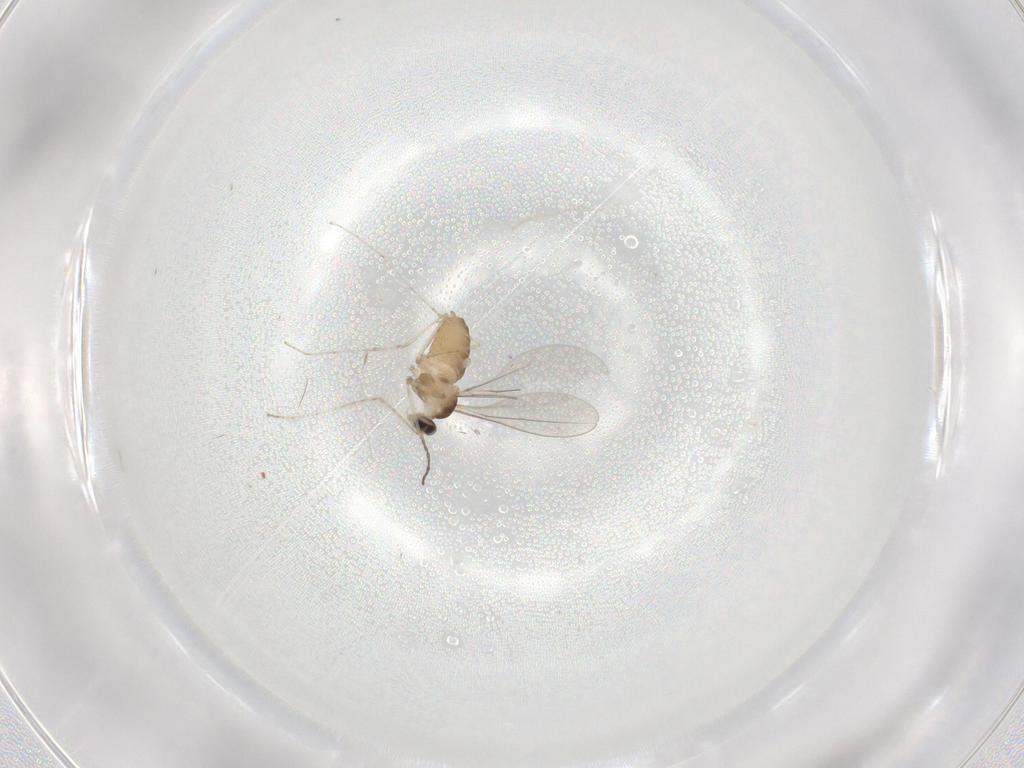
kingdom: Animalia
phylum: Arthropoda
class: Insecta
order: Diptera
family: Cecidomyiidae
